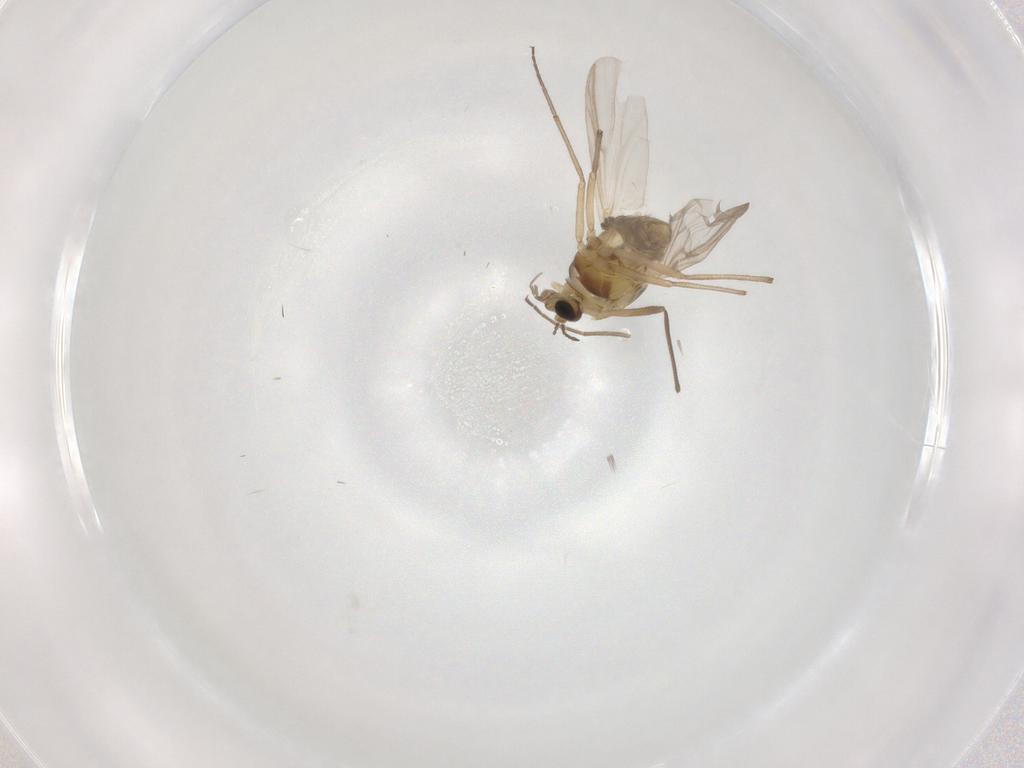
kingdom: Animalia
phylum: Arthropoda
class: Insecta
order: Diptera
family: Chironomidae
